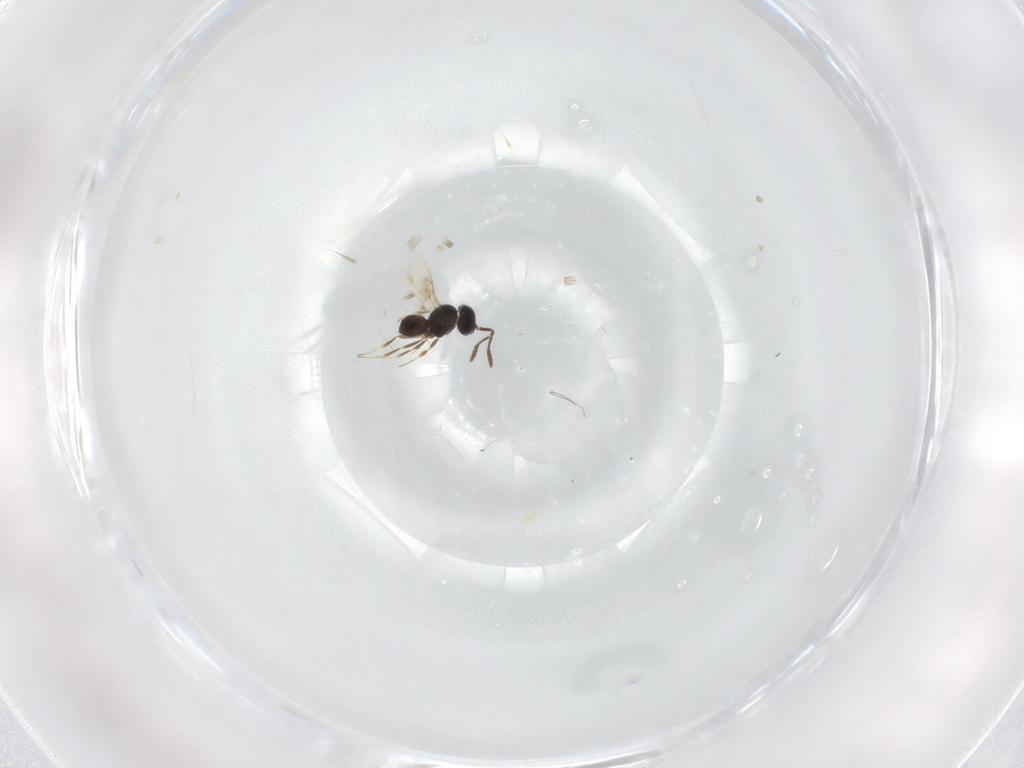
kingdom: Animalia
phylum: Arthropoda
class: Insecta
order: Hymenoptera
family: Scelionidae
